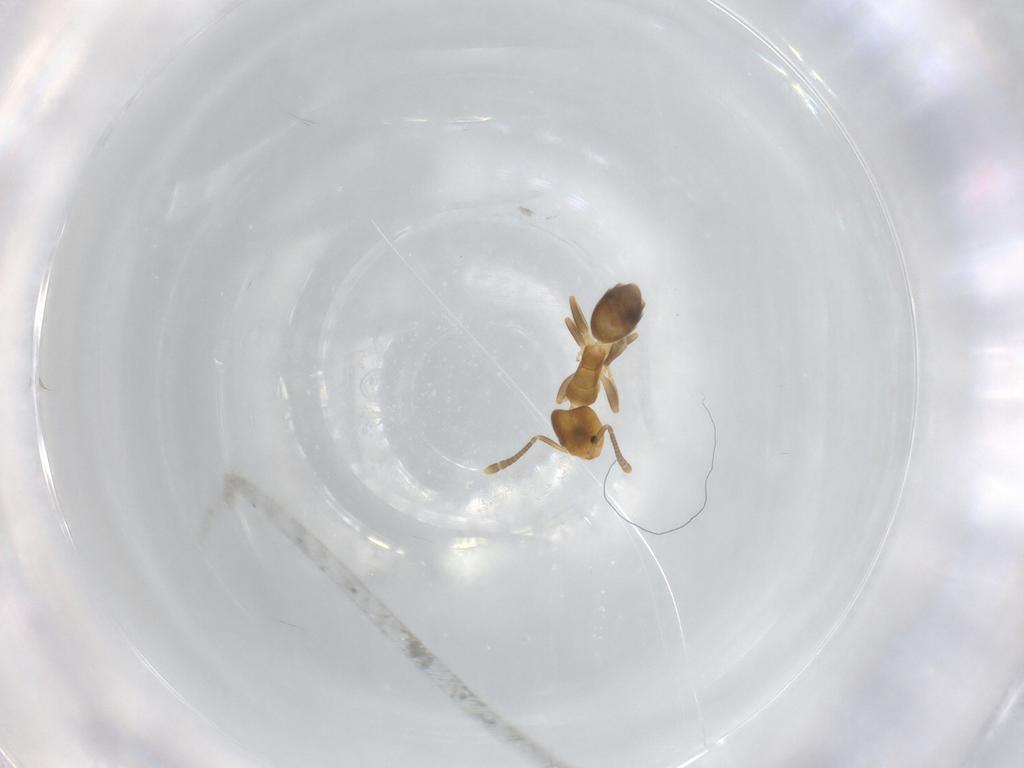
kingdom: Animalia
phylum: Arthropoda
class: Insecta
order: Hymenoptera
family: Formicidae
